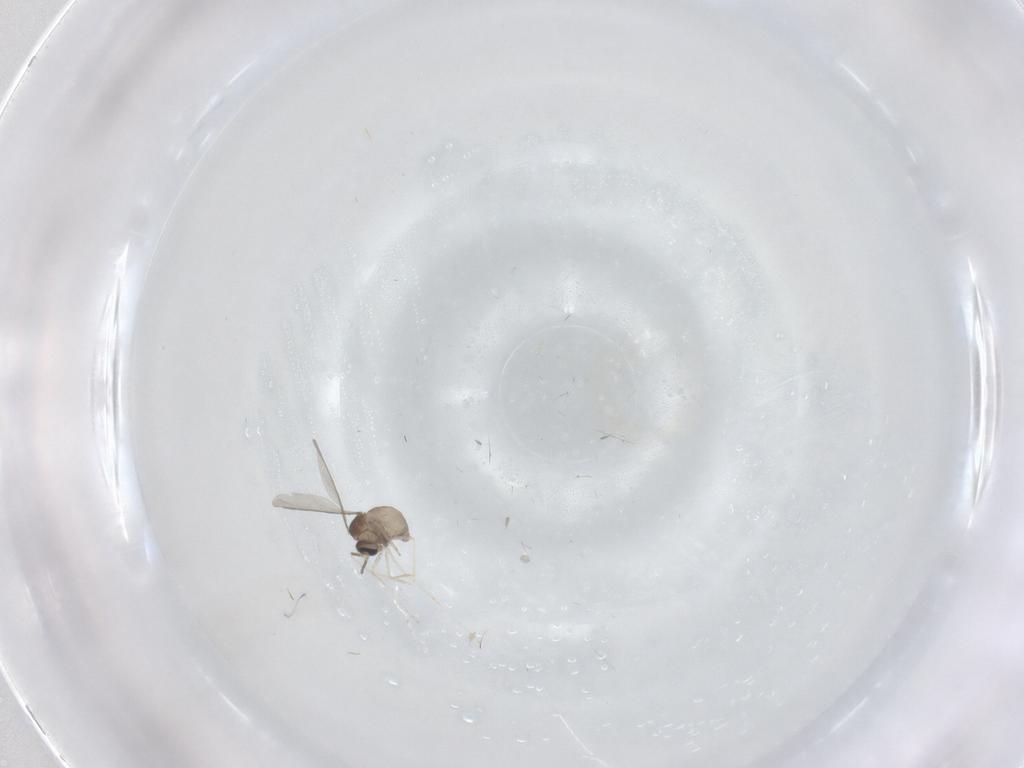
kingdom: Animalia
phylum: Arthropoda
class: Insecta
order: Diptera
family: Cecidomyiidae
